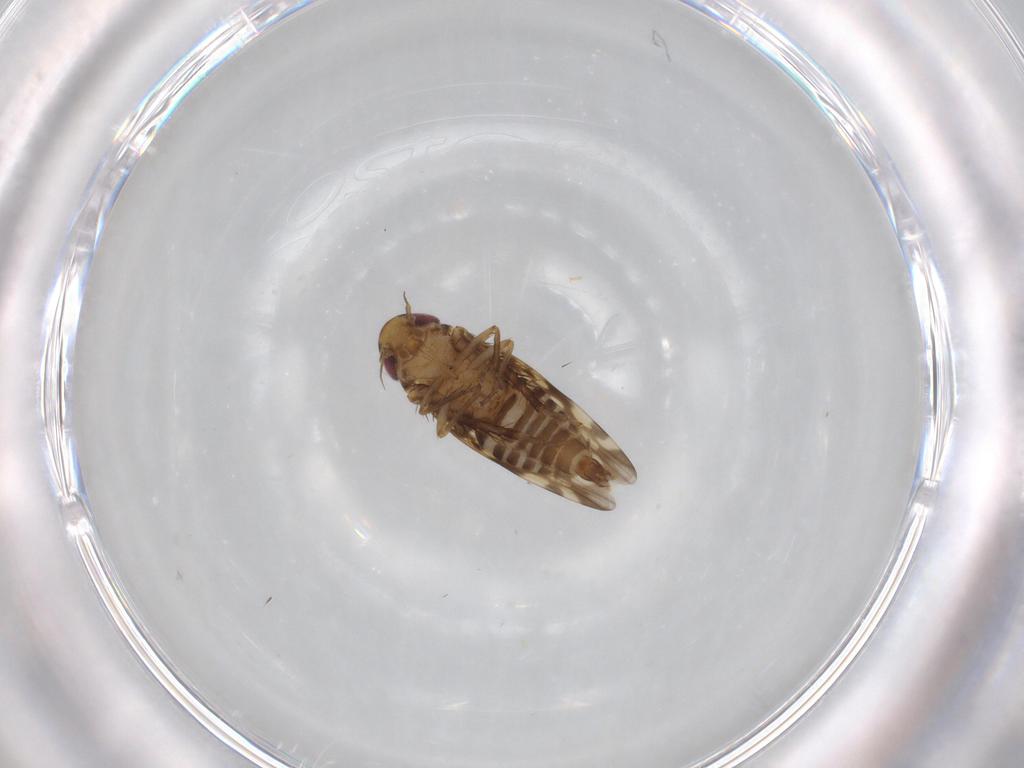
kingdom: Animalia
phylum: Arthropoda
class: Insecta
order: Hemiptera
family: Cicadellidae
